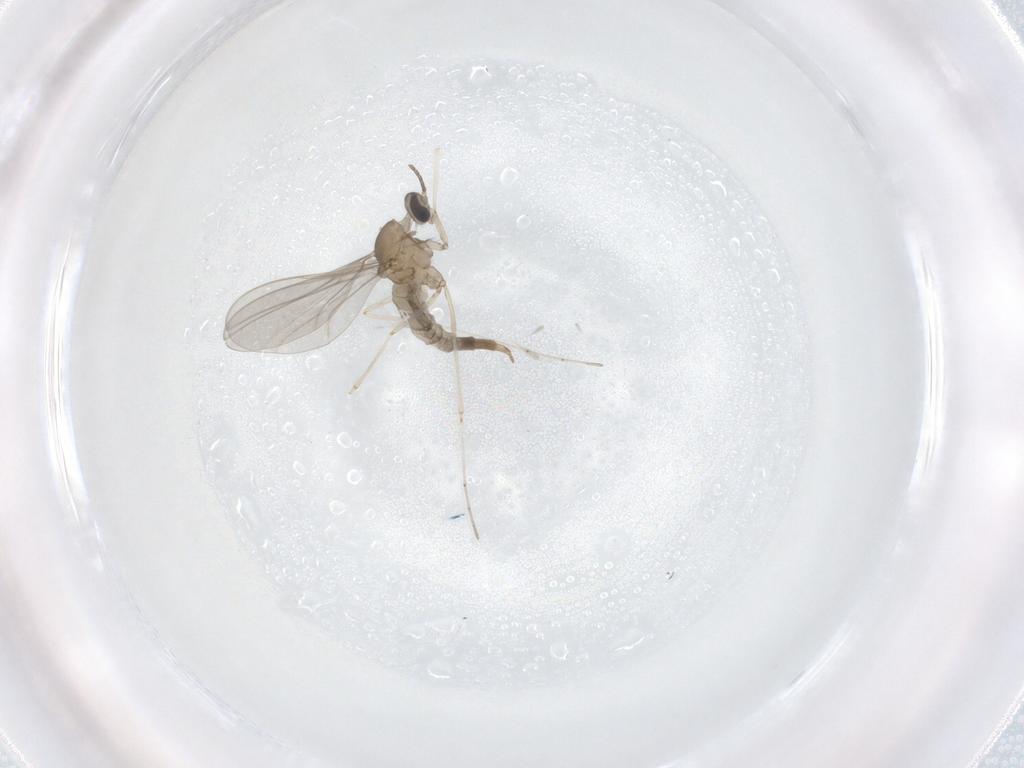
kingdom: Animalia
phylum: Arthropoda
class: Insecta
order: Diptera
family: Cecidomyiidae
